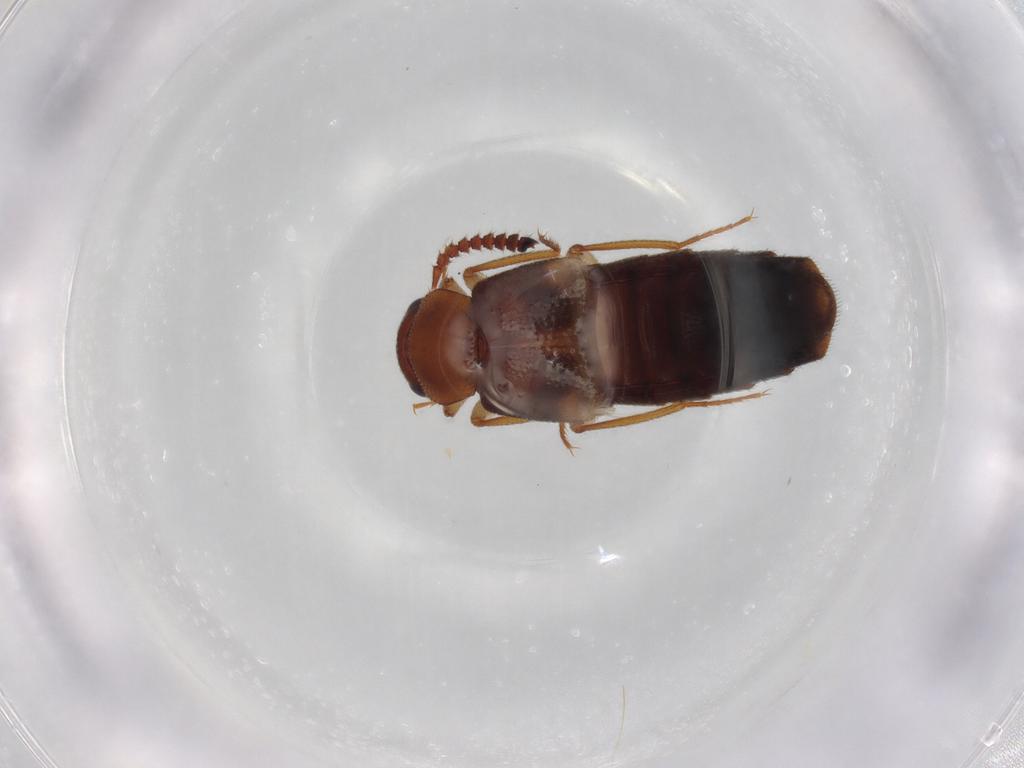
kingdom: Animalia
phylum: Arthropoda
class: Insecta
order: Coleoptera
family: Staphylinidae
